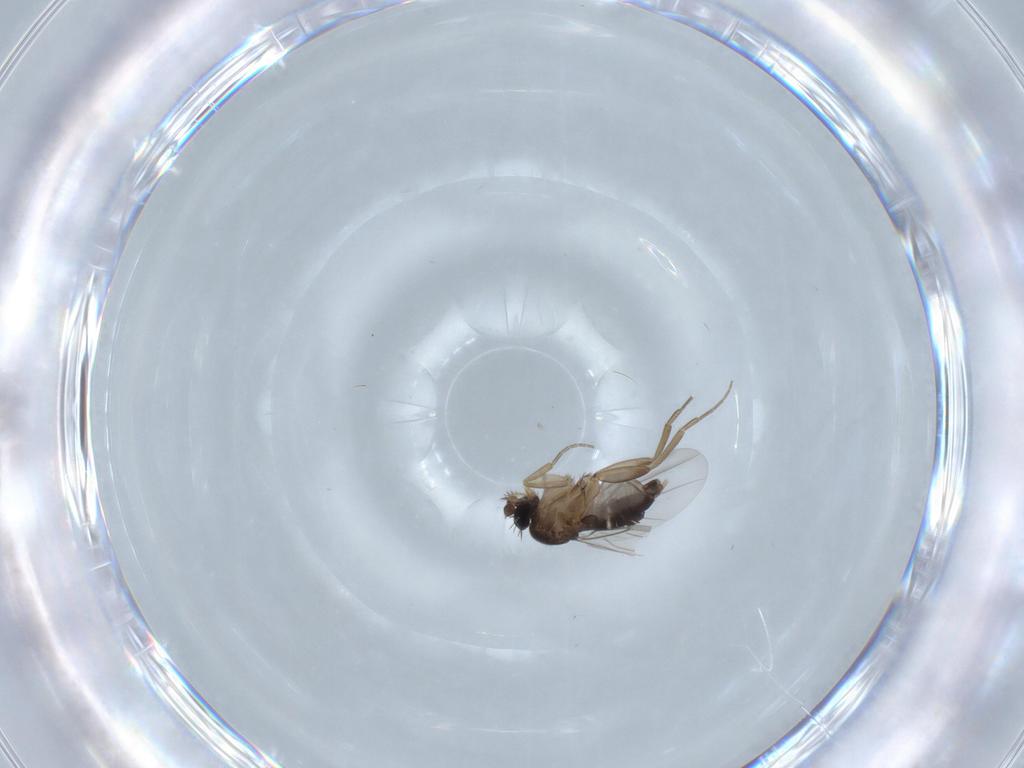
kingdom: Animalia
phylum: Arthropoda
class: Insecta
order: Diptera
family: Phoridae
